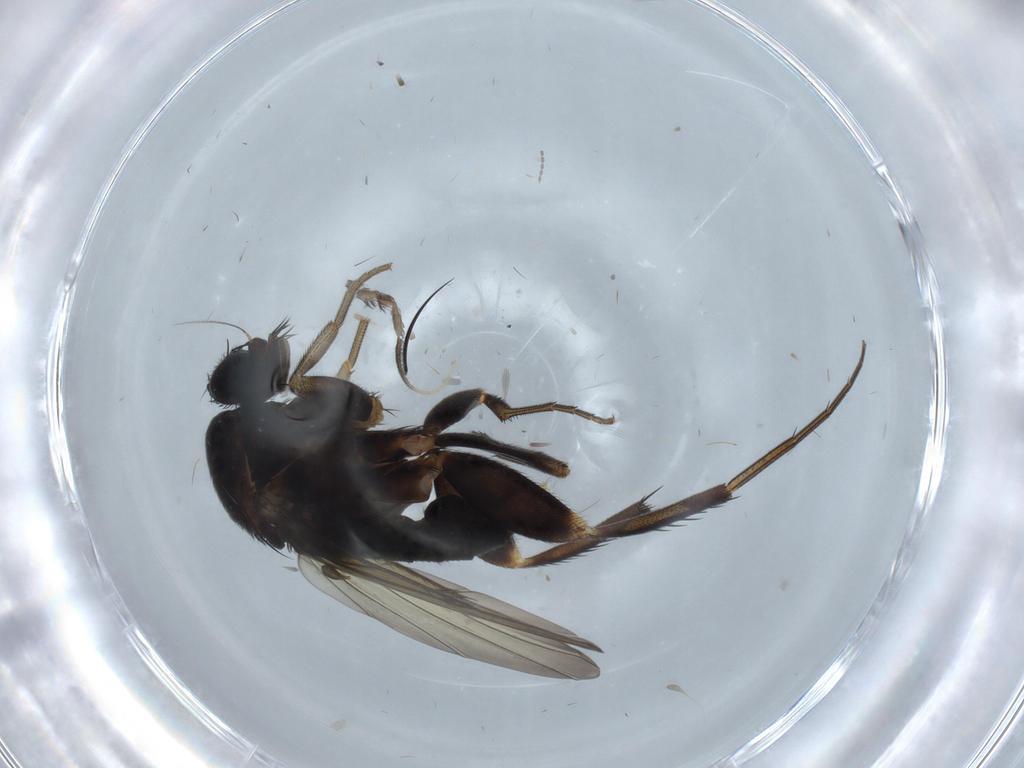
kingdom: Animalia
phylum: Arthropoda
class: Insecta
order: Diptera
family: Phoridae
